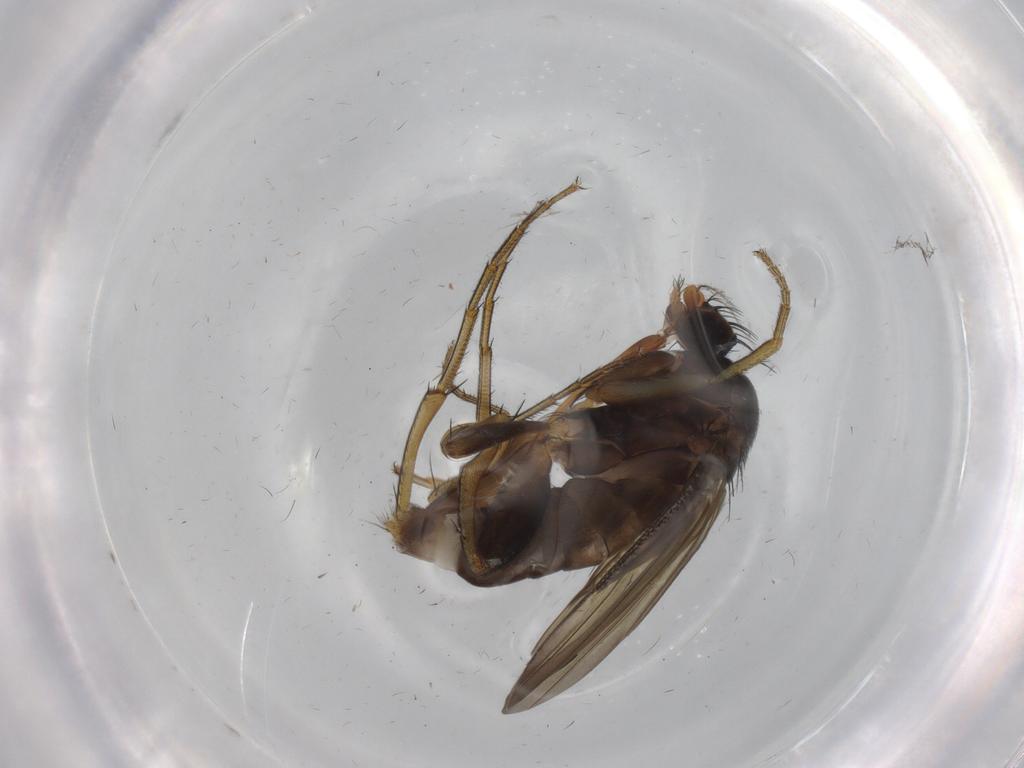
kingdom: Animalia
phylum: Arthropoda
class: Insecta
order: Diptera
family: Phoridae
